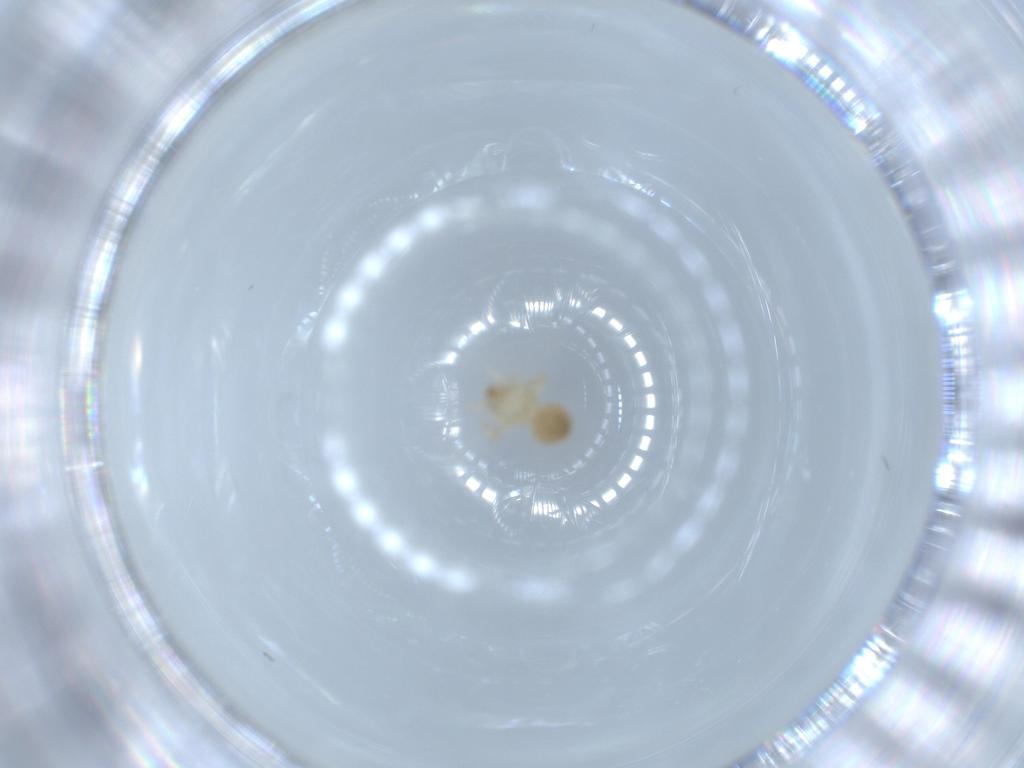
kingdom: Animalia
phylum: Arthropoda
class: Arachnida
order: Araneae
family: Oonopidae
